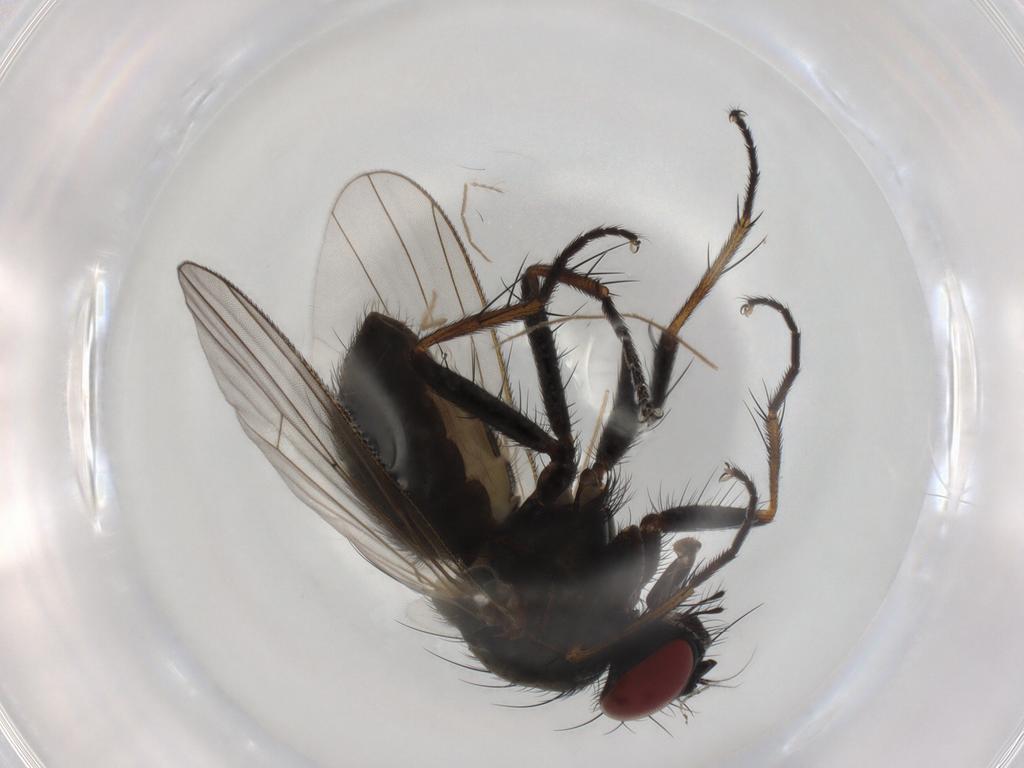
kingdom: Animalia
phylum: Arthropoda
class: Insecta
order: Diptera
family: Muscidae
